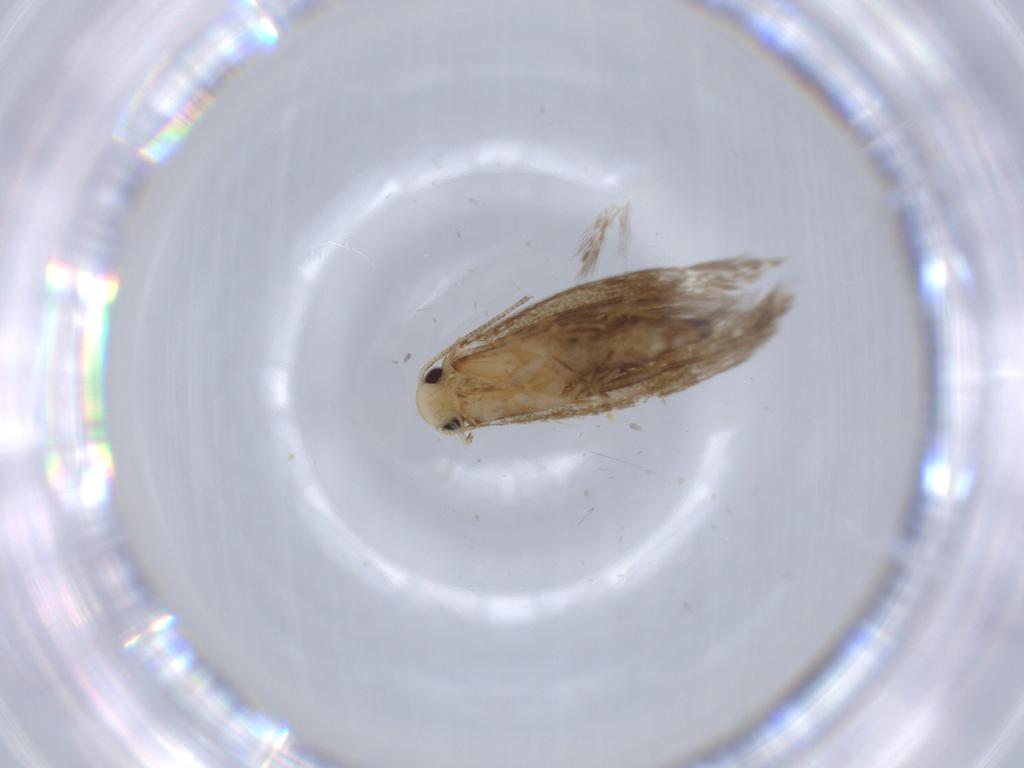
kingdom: Animalia
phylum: Arthropoda
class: Insecta
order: Lepidoptera
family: Tineidae
